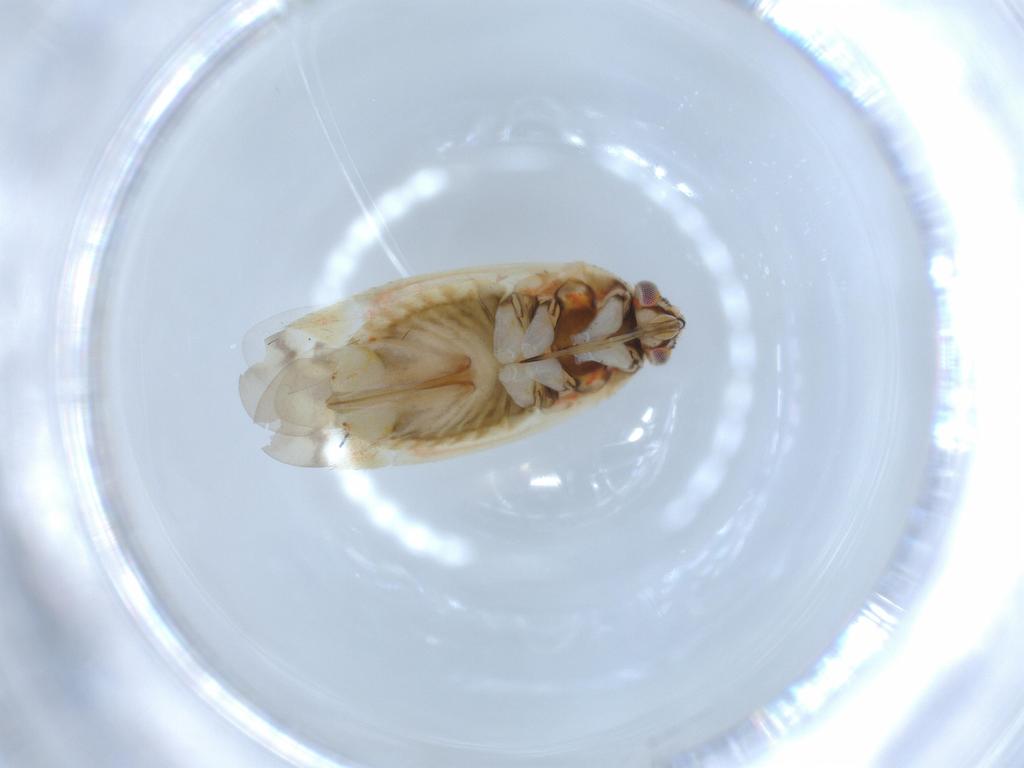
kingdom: Animalia
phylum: Arthropoda
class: Insecta
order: Hemiptera
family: Aphididae
